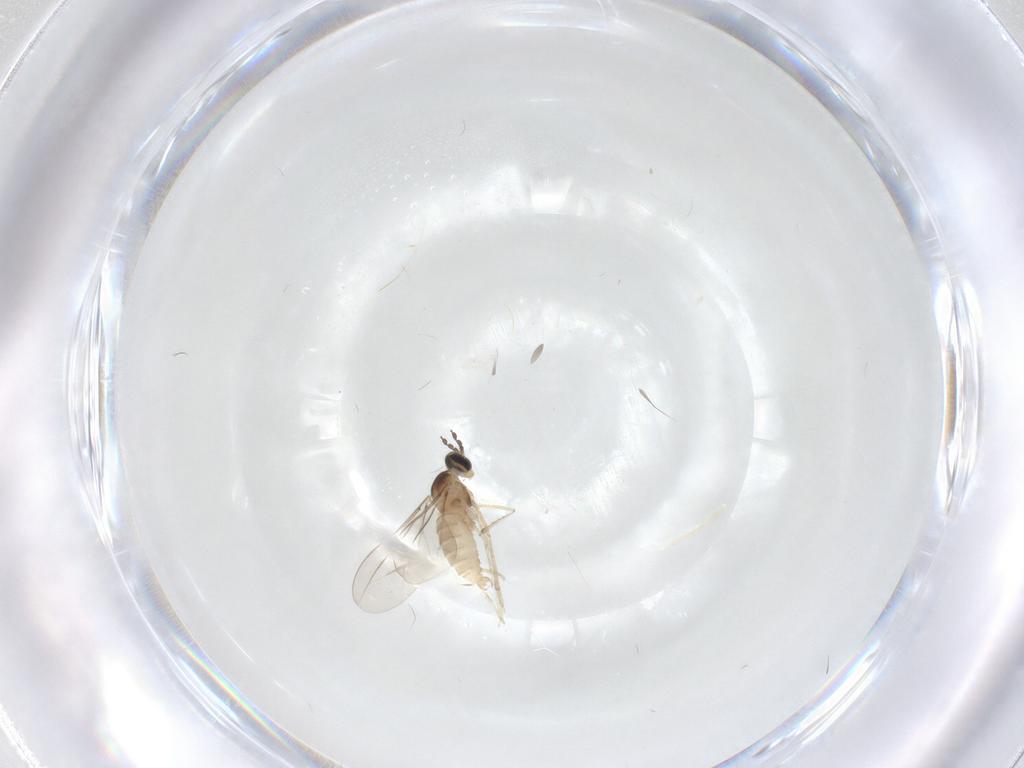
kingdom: Animalia
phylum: Arthropoda
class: Insecta
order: Diptera
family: Cecidomyiidae
